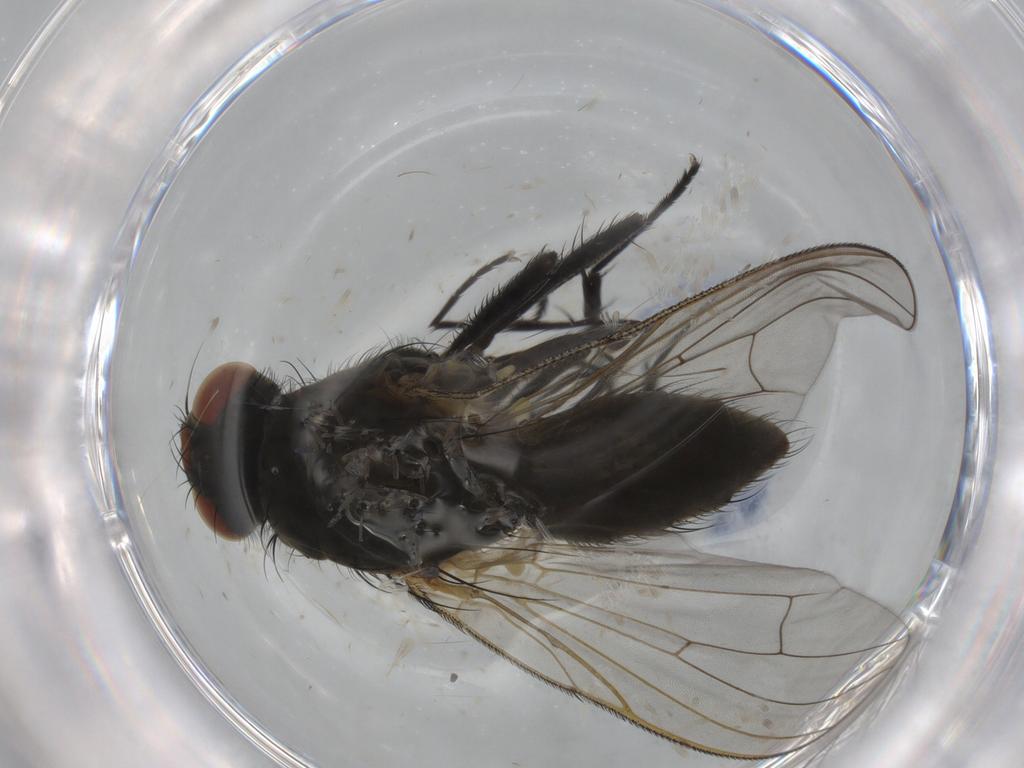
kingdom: Animalia
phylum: Arthropoda
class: Insecta
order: Diptera
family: Anthomyiidae
